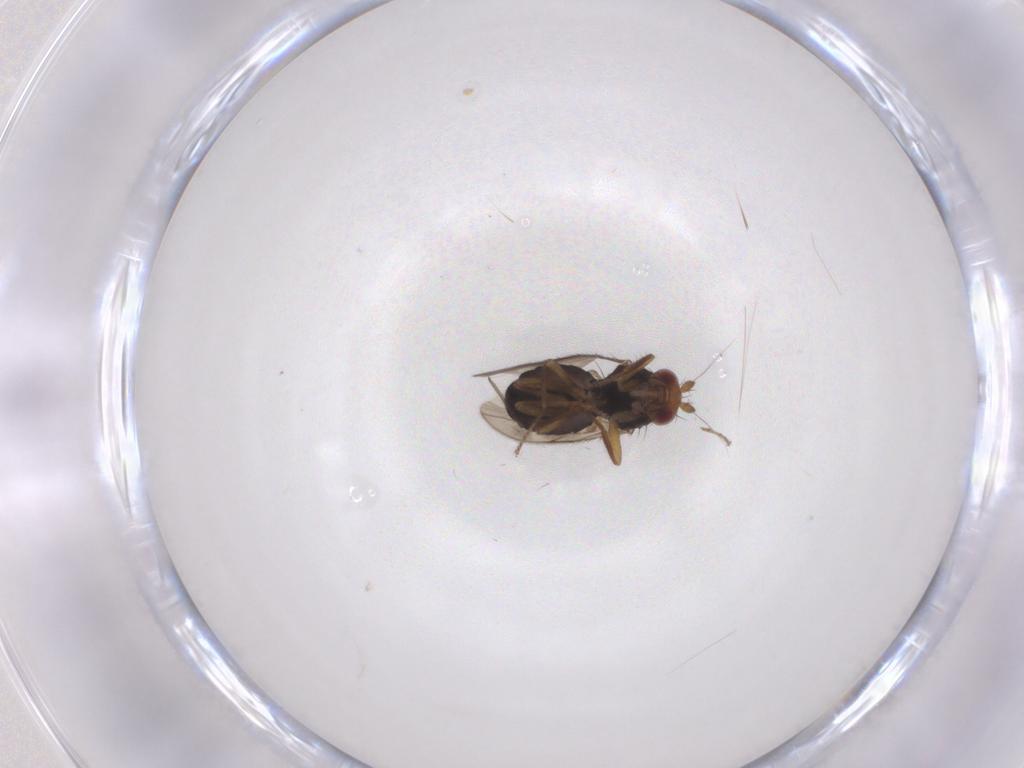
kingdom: Animalia
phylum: Arthropoda
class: Insecta
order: Diptera
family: Sphaeroceridae
